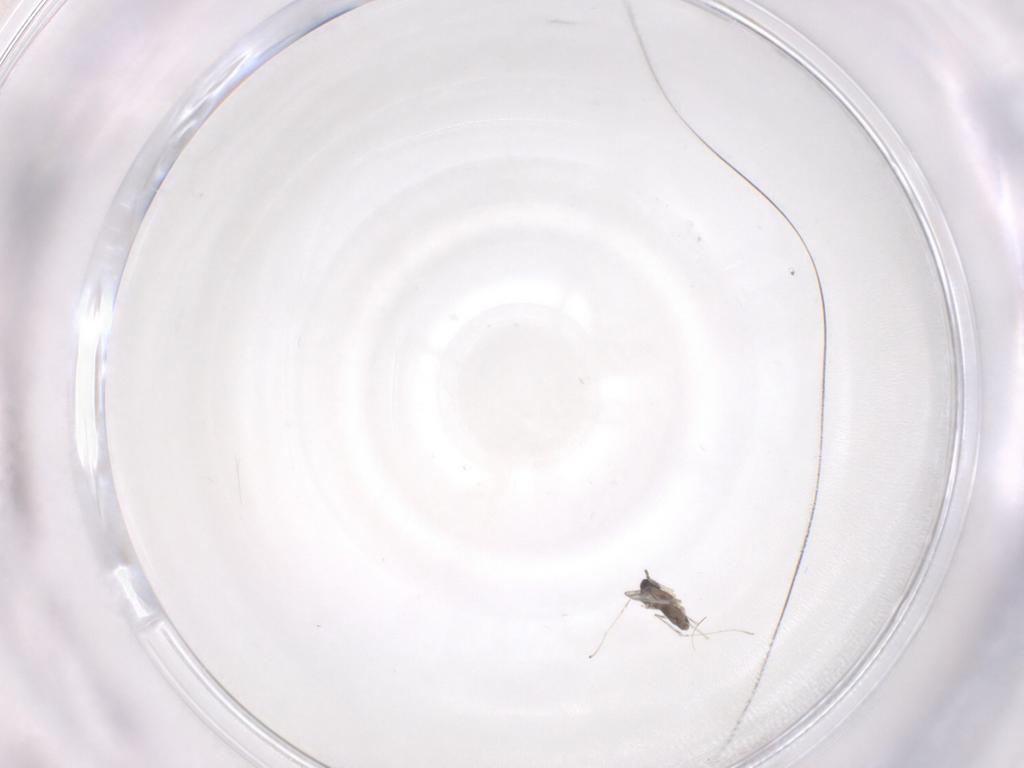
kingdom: Animalia
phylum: Arthropoda
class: Insecta
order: Diptera
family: Cecidomyiidae
